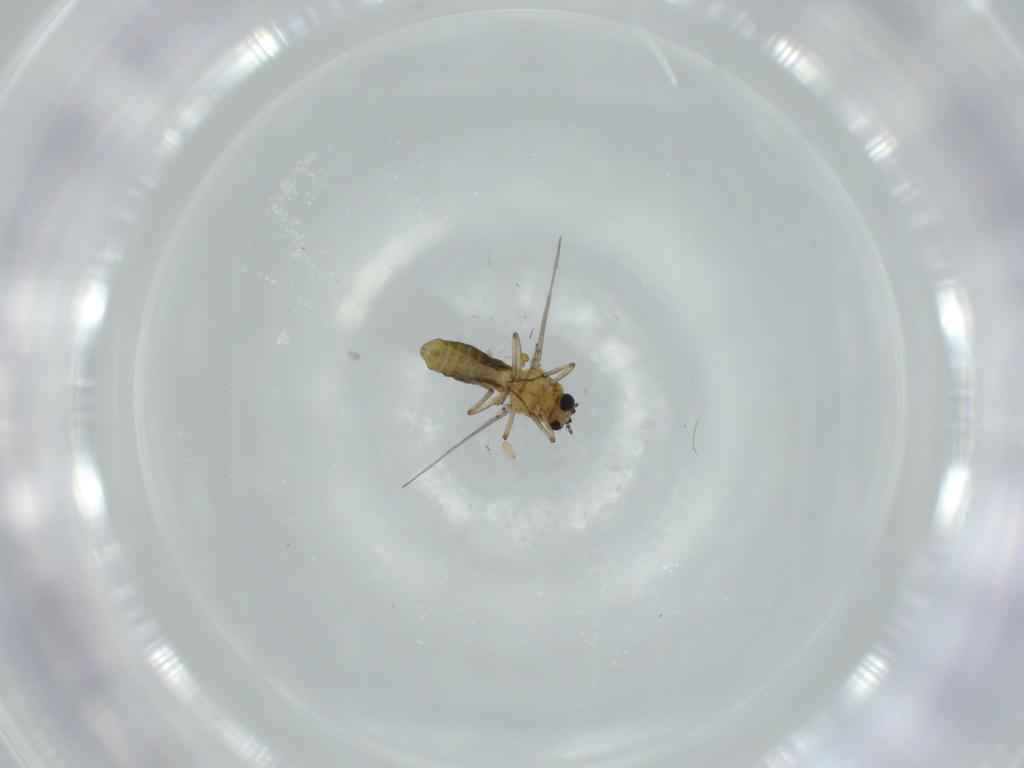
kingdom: Animalia
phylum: Arthropoda
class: Insecta
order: Diptera
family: Ceratopogonidae
